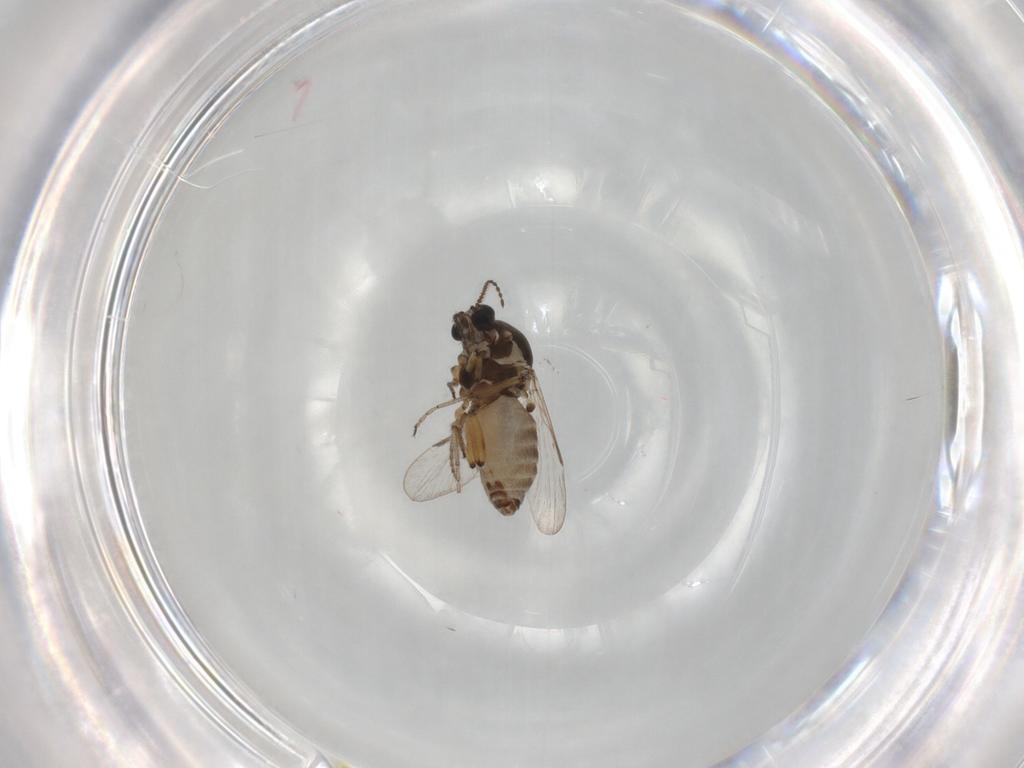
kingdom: Animalia
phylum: Arthropoda
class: Insecta
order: Diptera
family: Ceratopogonidae
